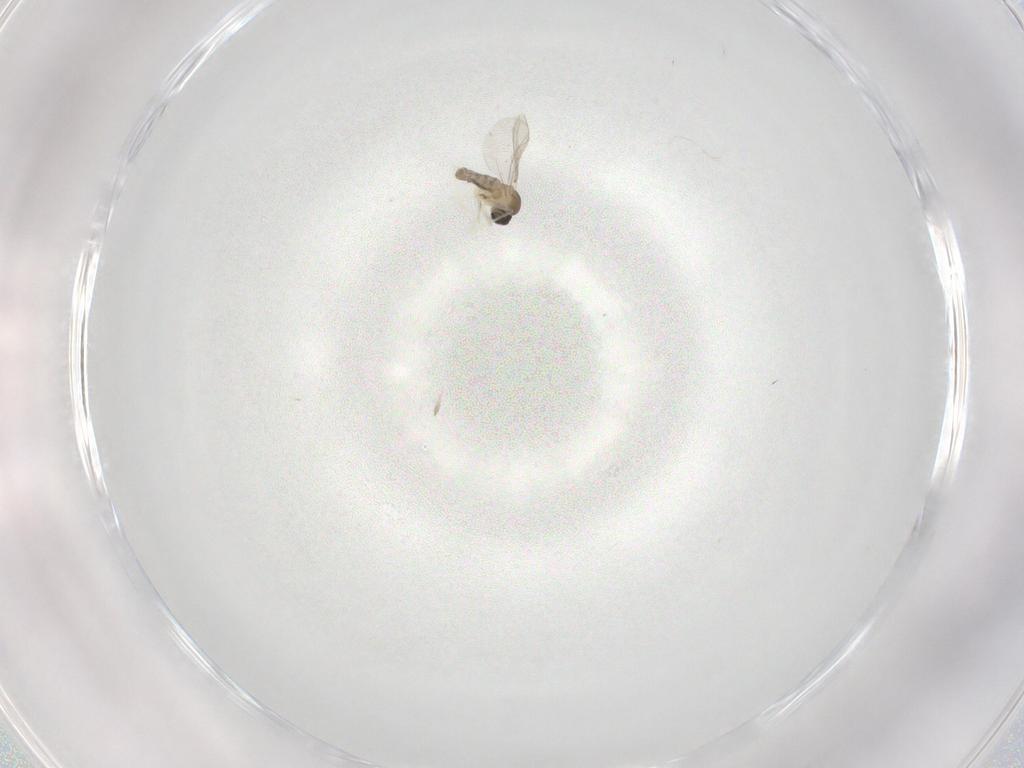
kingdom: Animalia
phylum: Arthropoda
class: Insecta
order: Diptera
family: Cecidomyiidae
